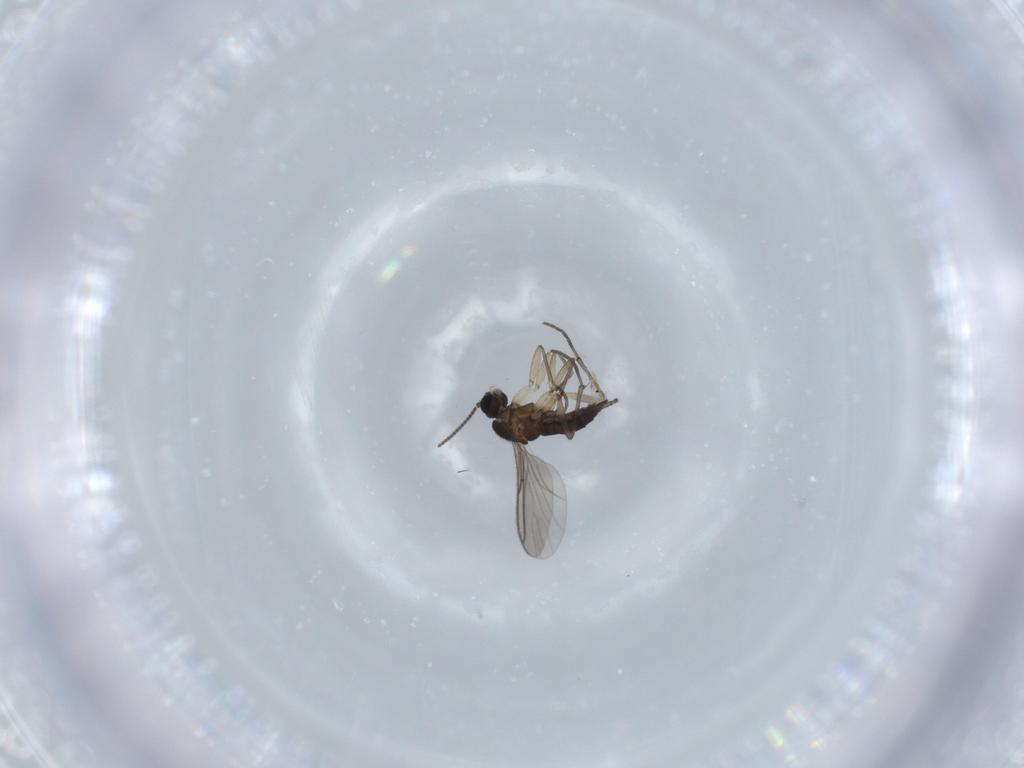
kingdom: Animalia
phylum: Arthropoda
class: Insecta
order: Diptera
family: Sciaridae
